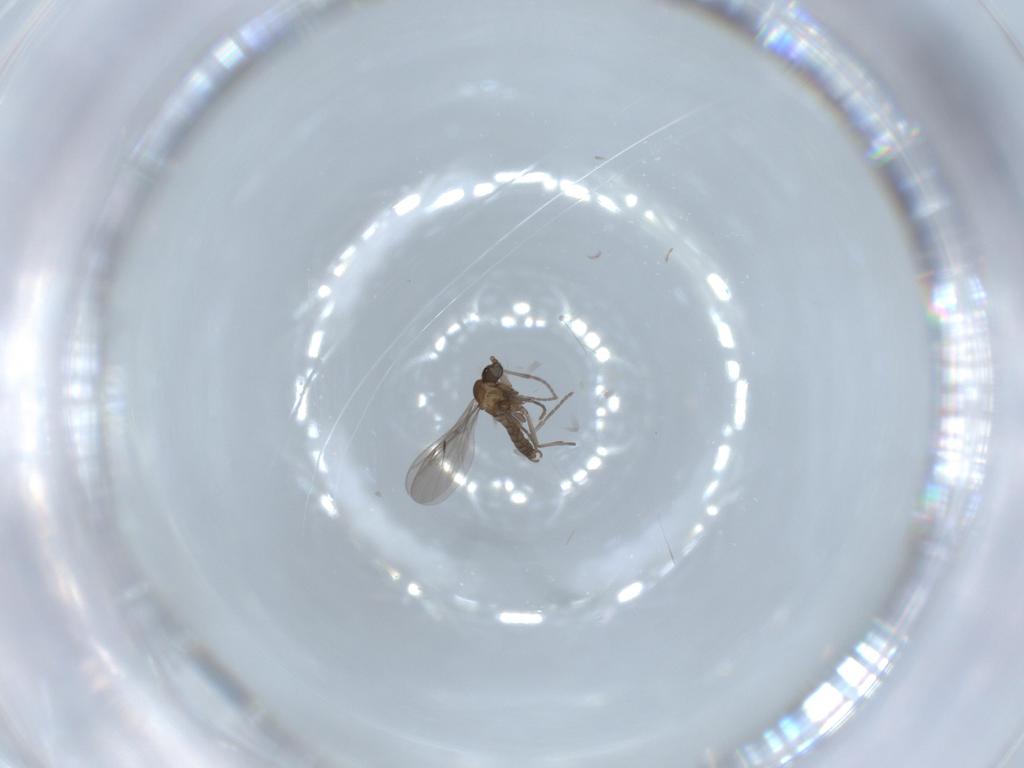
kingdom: Animalia
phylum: Arthropoda
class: Insecta
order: Diptera
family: Sciaridae
